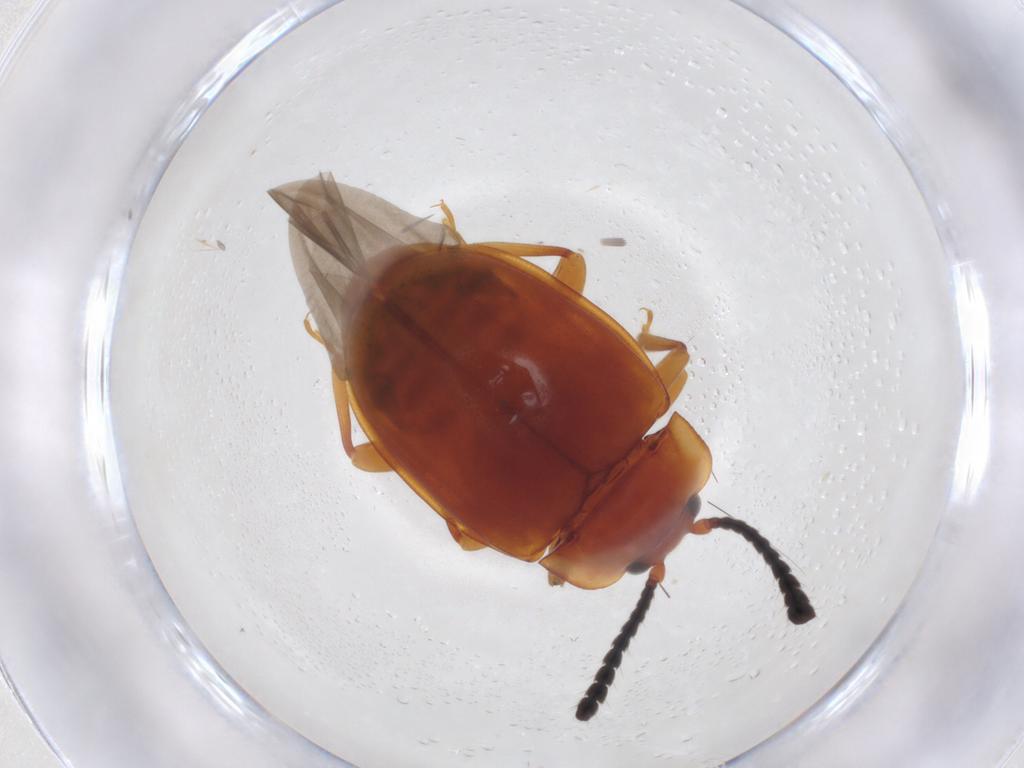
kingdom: Animalia
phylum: Arthropoda
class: Insecta
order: Coleoptera
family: Endomychidae
